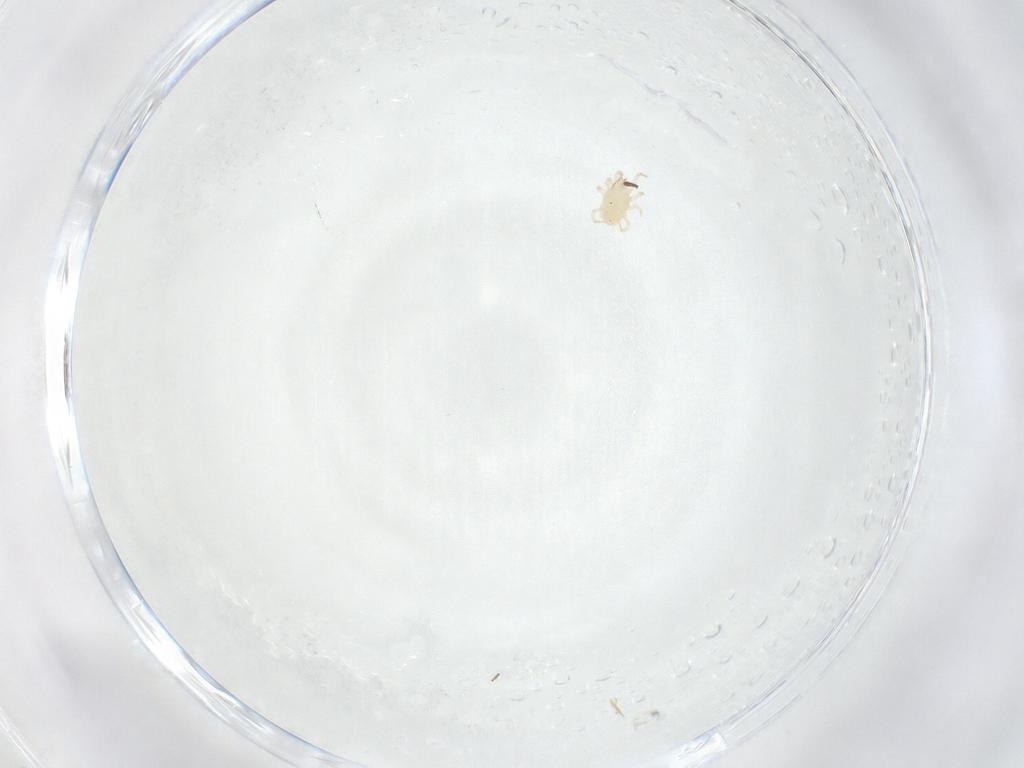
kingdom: Animalia
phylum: Arthropoda
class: Arachnida
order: Mesostigmata
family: Blattisociidae
